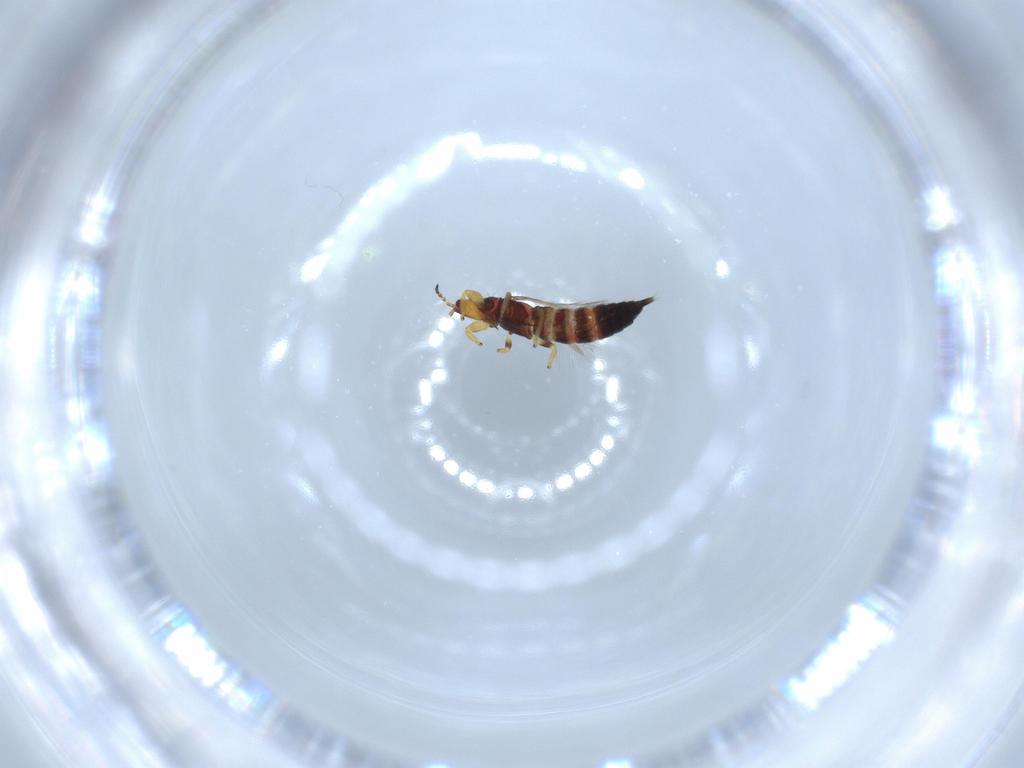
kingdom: Animalia
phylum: Arthropoda
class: Insecta
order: Thysanoptera
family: Phlaeothripidae
